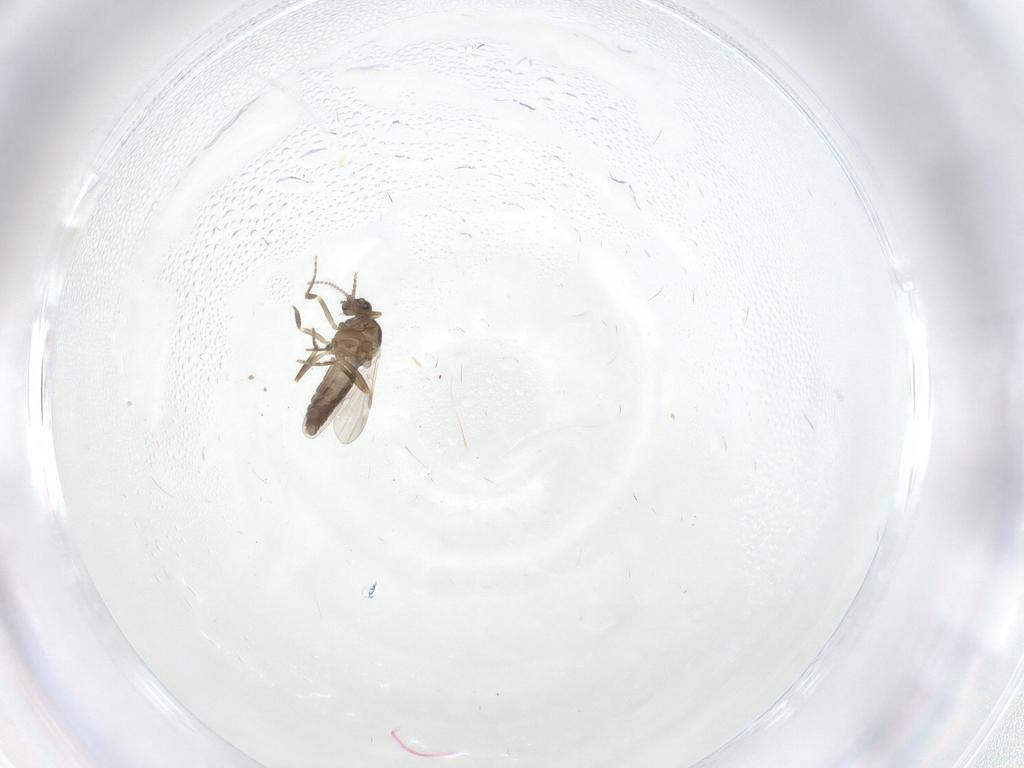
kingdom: Animalia
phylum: Arthropoda
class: Insecta
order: Diptera
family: Ceratopogonidae
